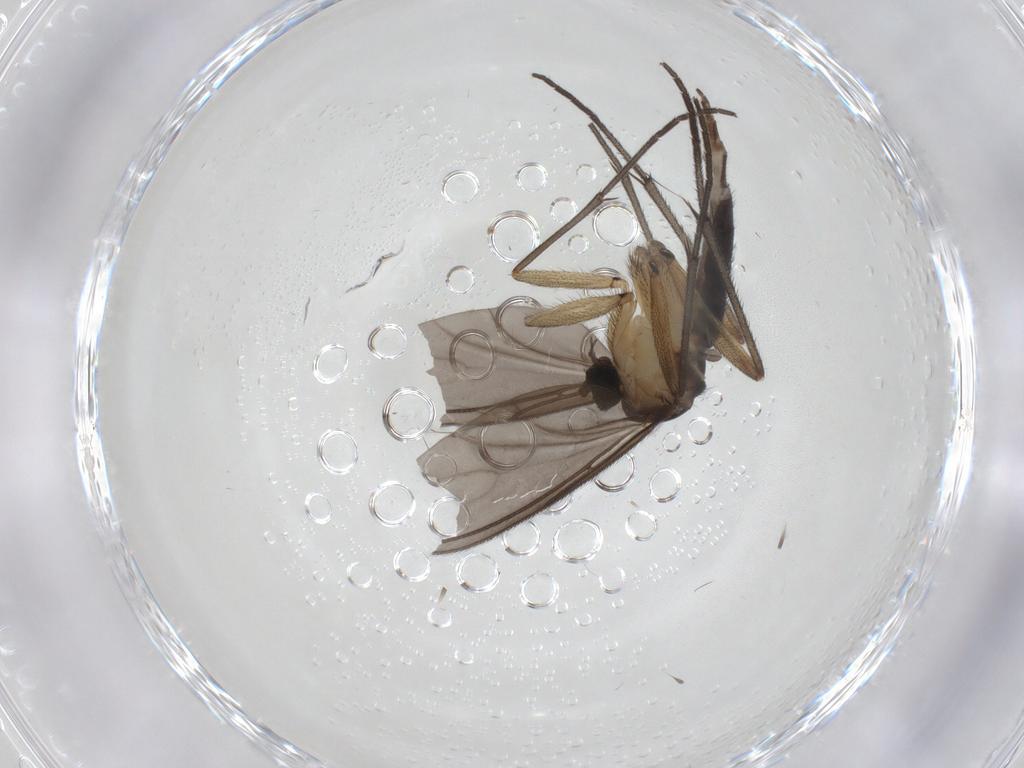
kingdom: Animalia
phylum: Arthropoda
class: Insecta
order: Diptera
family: Sciaridae
